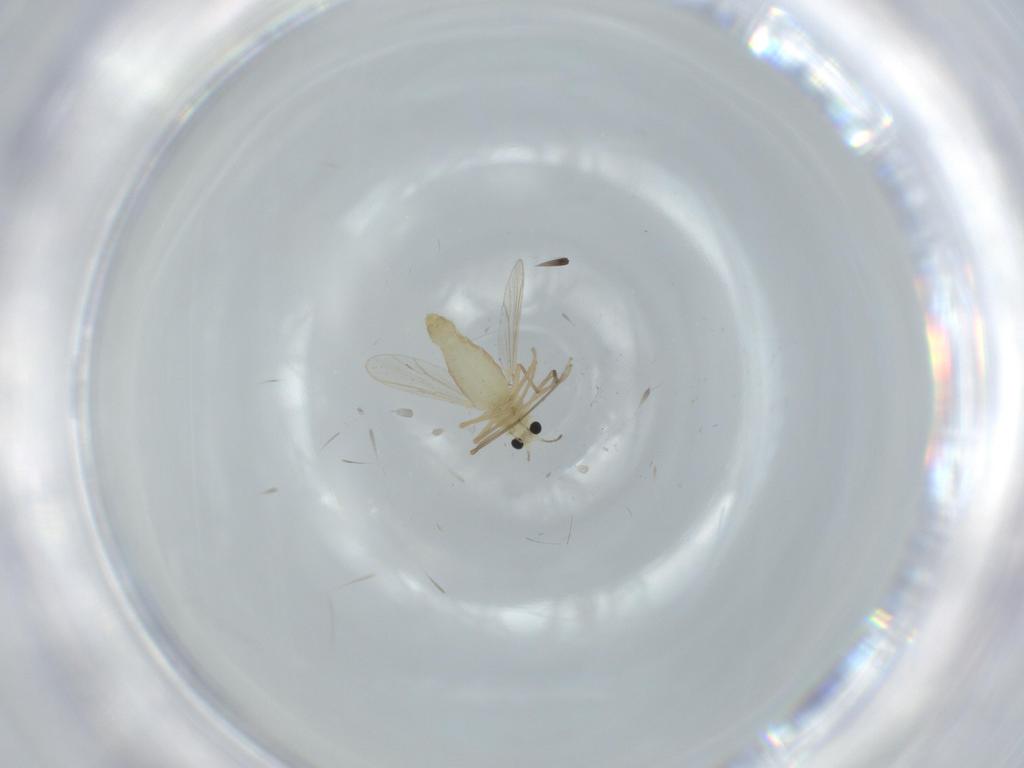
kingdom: Animalia
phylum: Arthropoda
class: Insecta
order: Diptera
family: Chironomidae
